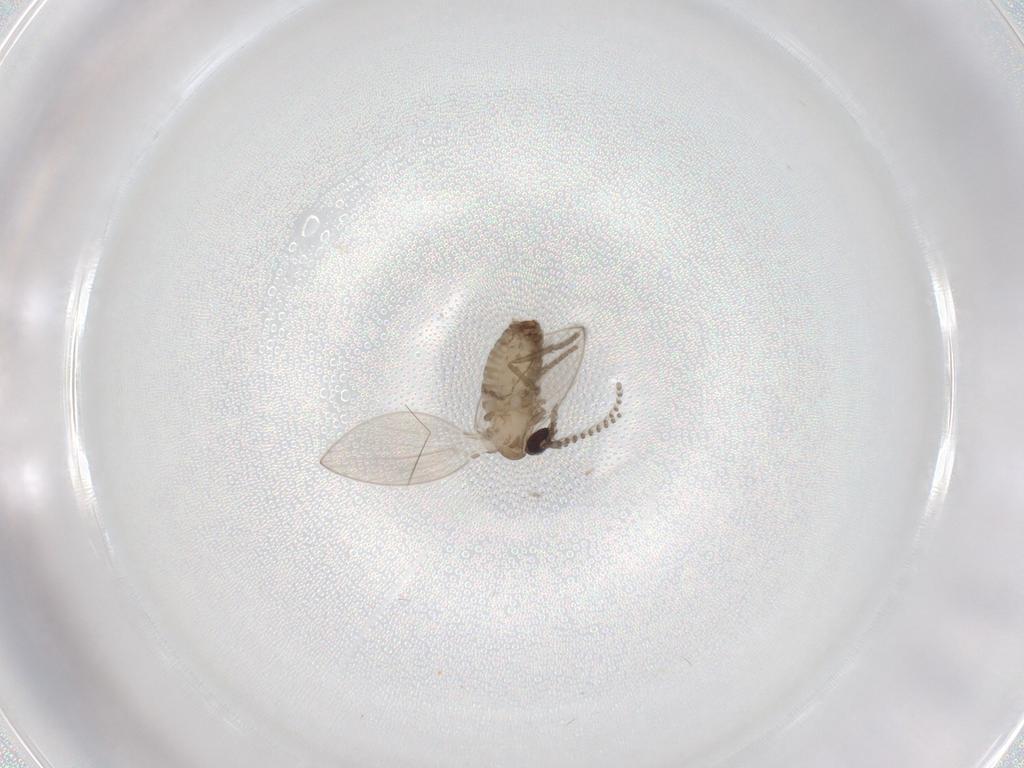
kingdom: Animalia
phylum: Arthropoda
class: Insecta
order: Diptera
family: Psychodidae
